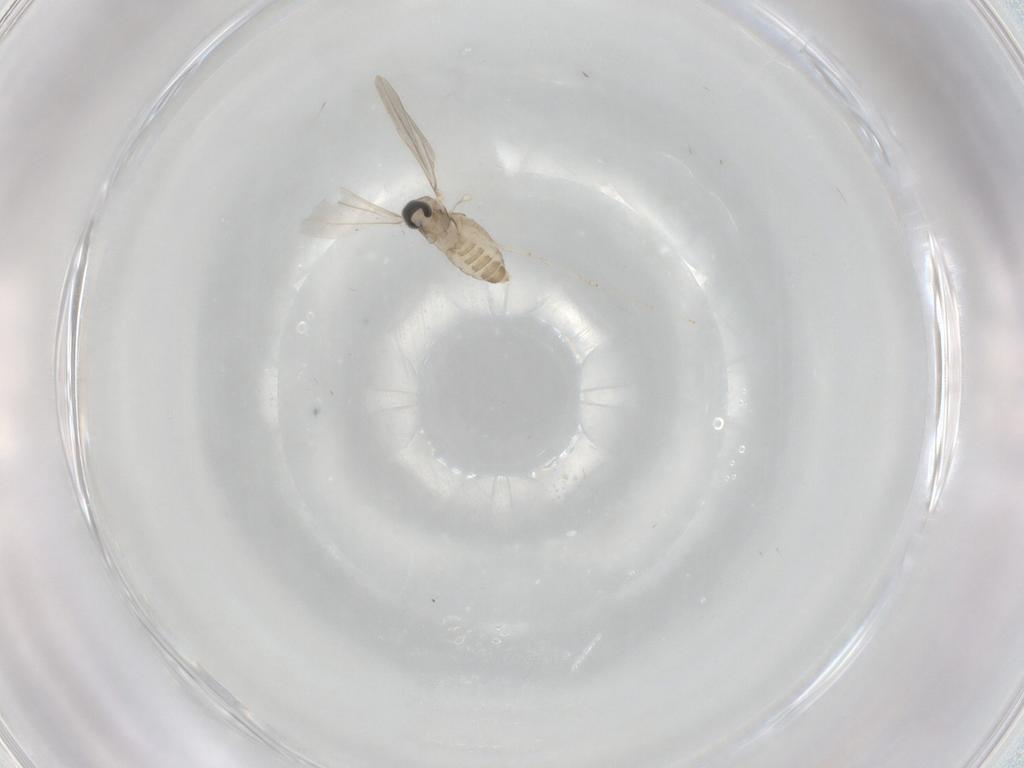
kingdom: Animalia
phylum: Arthropoda
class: Insecta
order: Diptera
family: Cecidomyiidae
